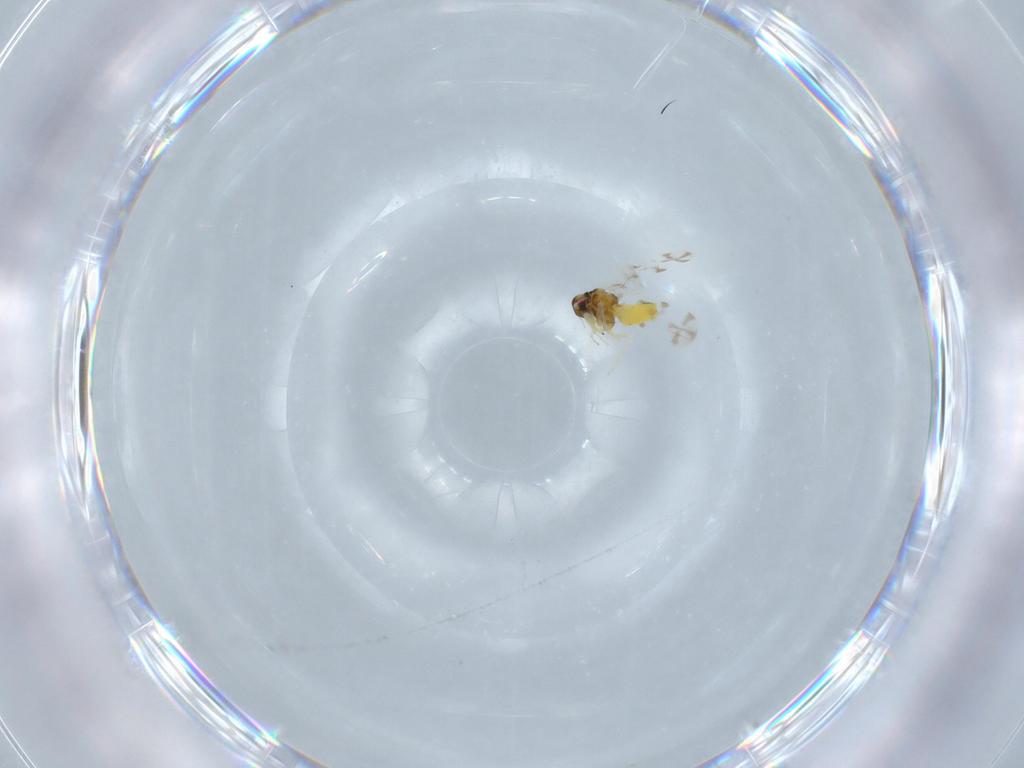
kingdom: Animalia
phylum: Arthropoda
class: Insecta
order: Hemiptera
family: Aleyrodidae
